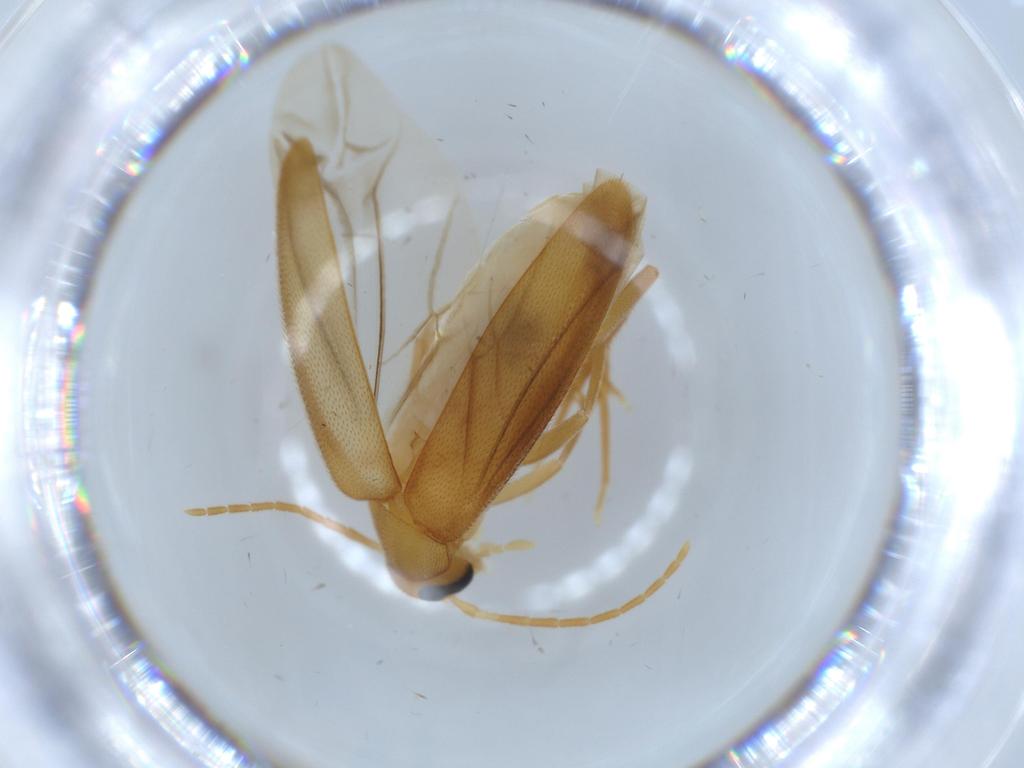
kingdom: Animalia
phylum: Arthropoda
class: Insecta
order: Coleoptera
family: Scraptiidae
